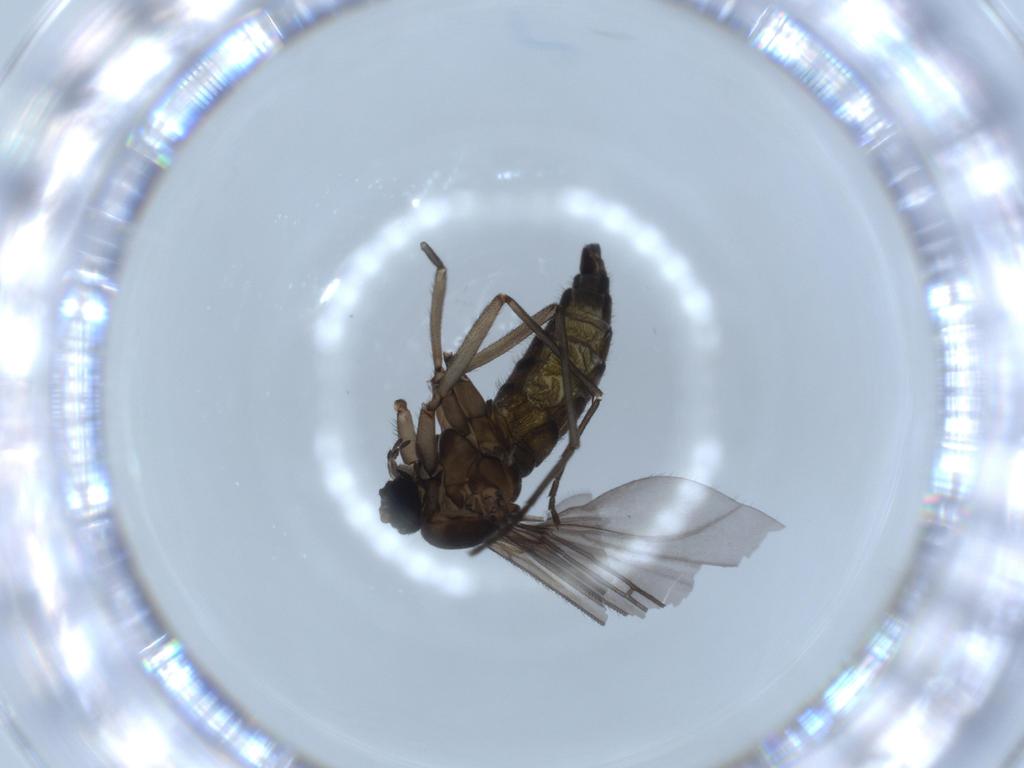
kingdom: Animalia
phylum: Arthropoda
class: Insecta
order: Diptera
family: Sciaridae
